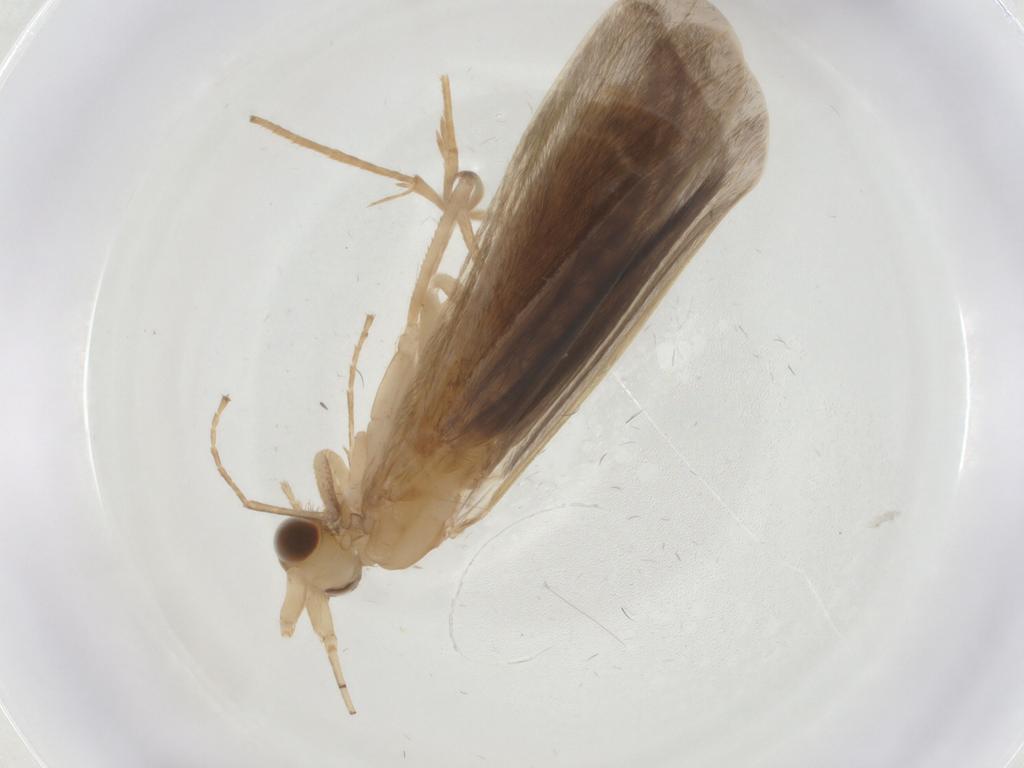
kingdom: Animalia
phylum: Arthropoda
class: Insecta
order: Trichoptera
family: Leptoceridae
